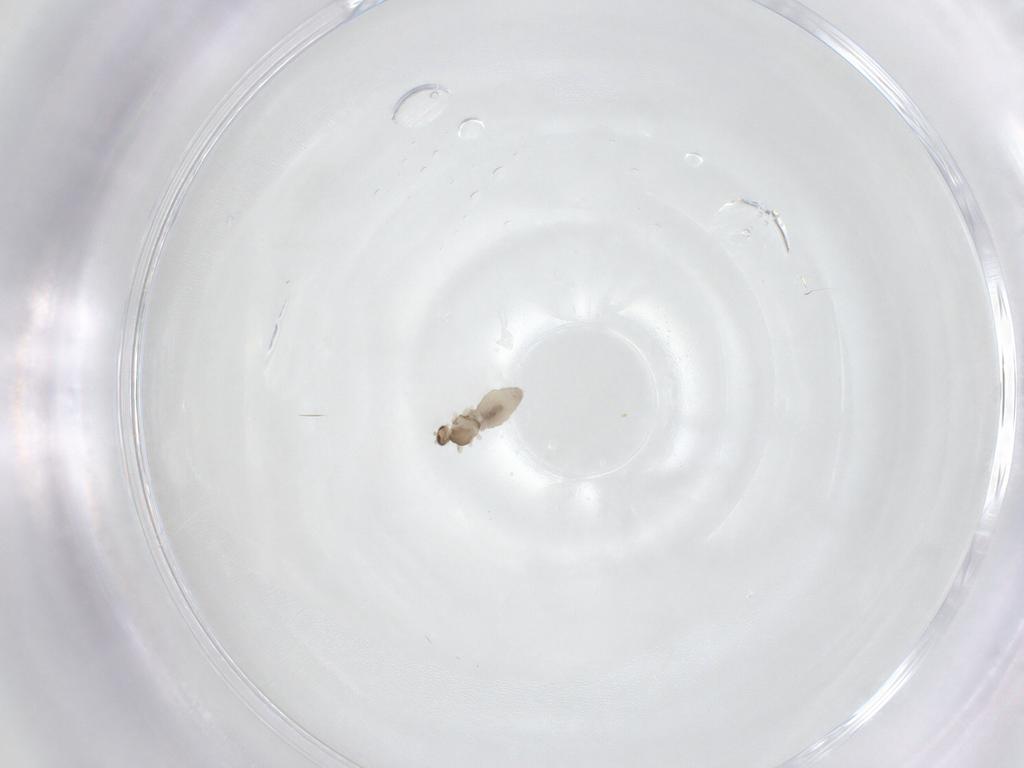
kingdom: Animalia
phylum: Arthropoda
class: Insecta
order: Diptera
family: Cecidomyiidae
